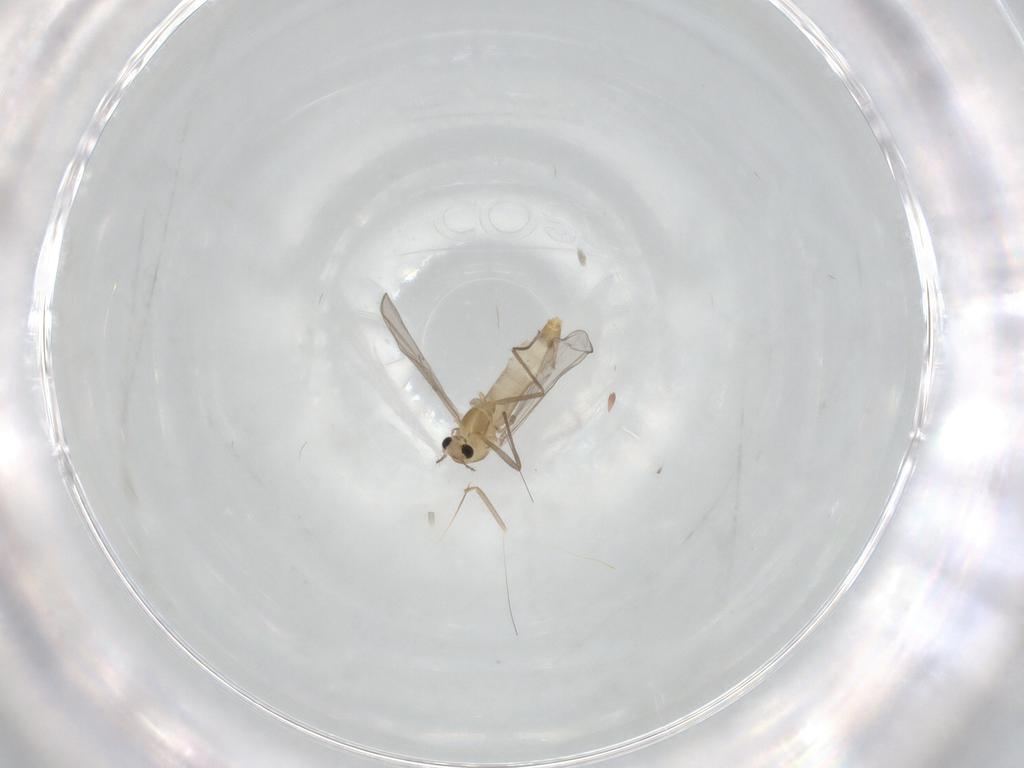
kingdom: Animalia
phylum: Arthropoda
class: Insecta
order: Diptera
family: Chironomidae
